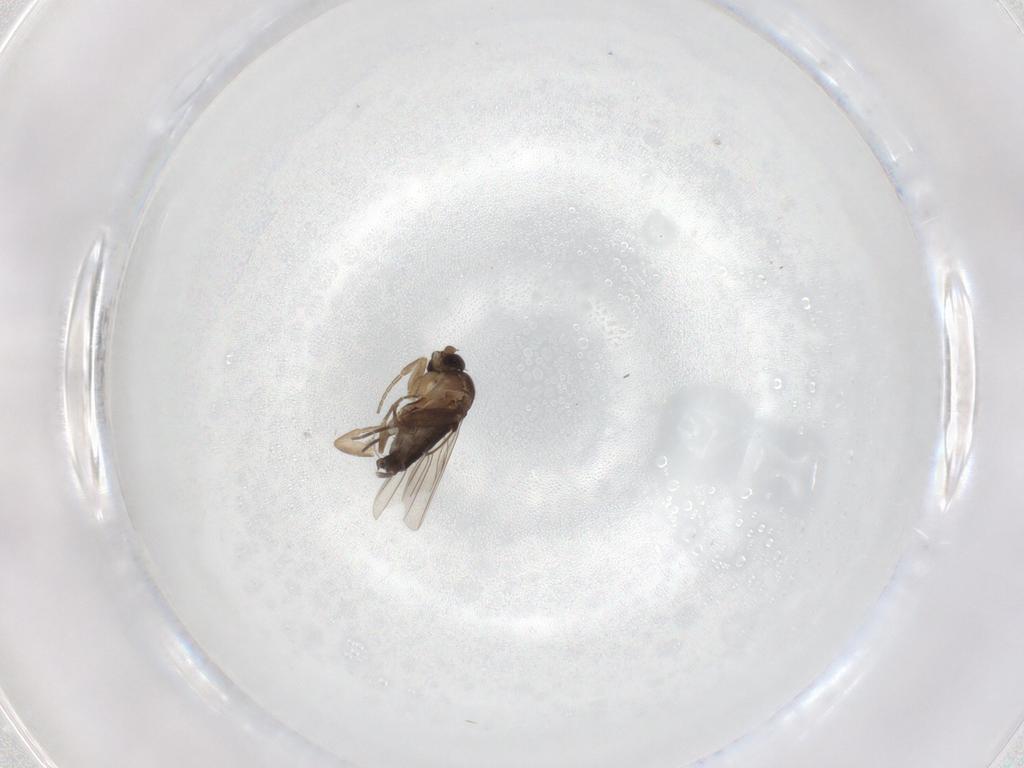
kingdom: Animalia
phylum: Arthropoda
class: Insecta
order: Diptera
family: Phoridae
